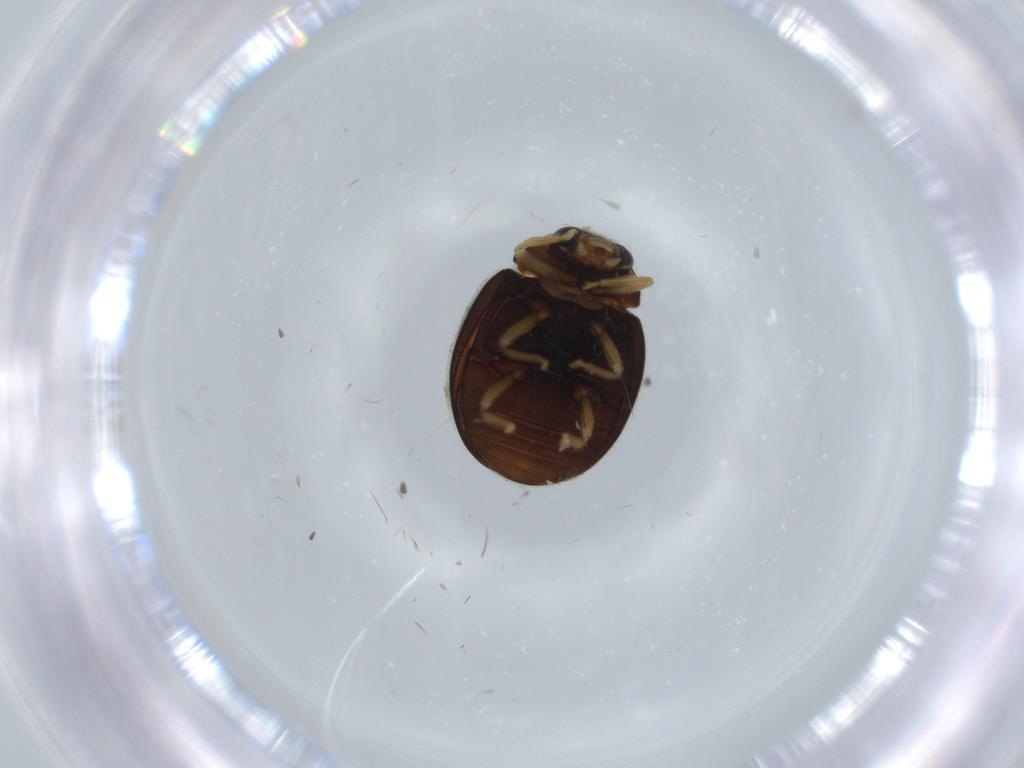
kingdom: Animalia
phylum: Arthropoda
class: Insecta
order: Coleoptera
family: Coccinellidae
